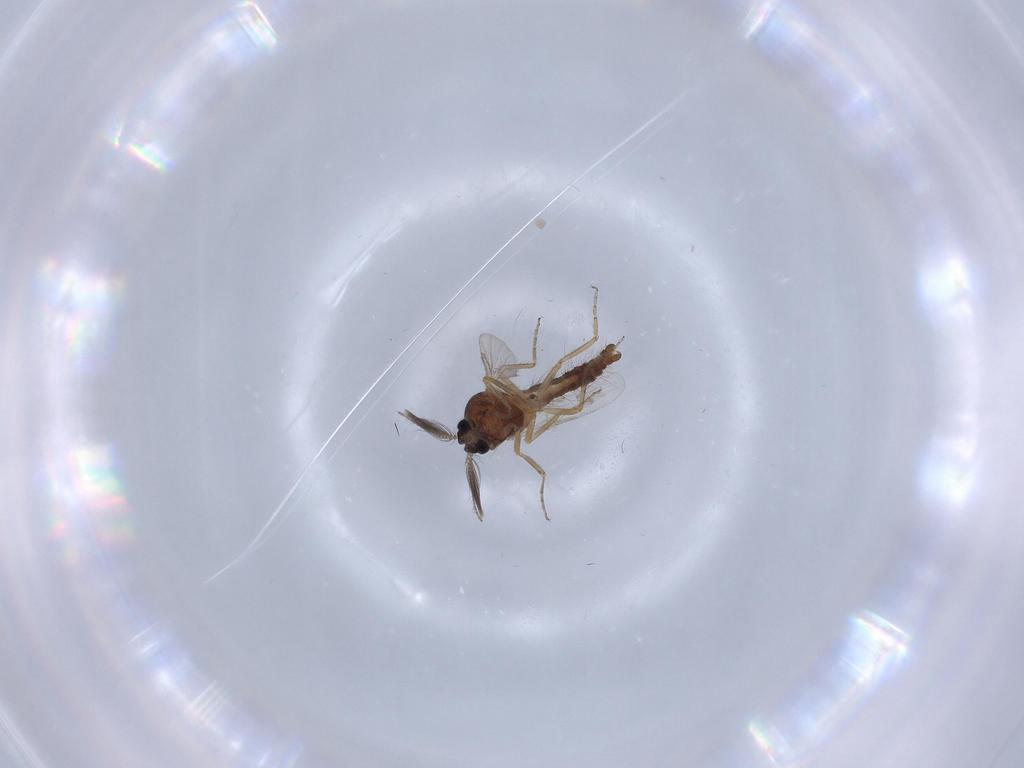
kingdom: Animalia
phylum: Arthropoda
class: Insecta
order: Diptera
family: Ceratopogonidae
